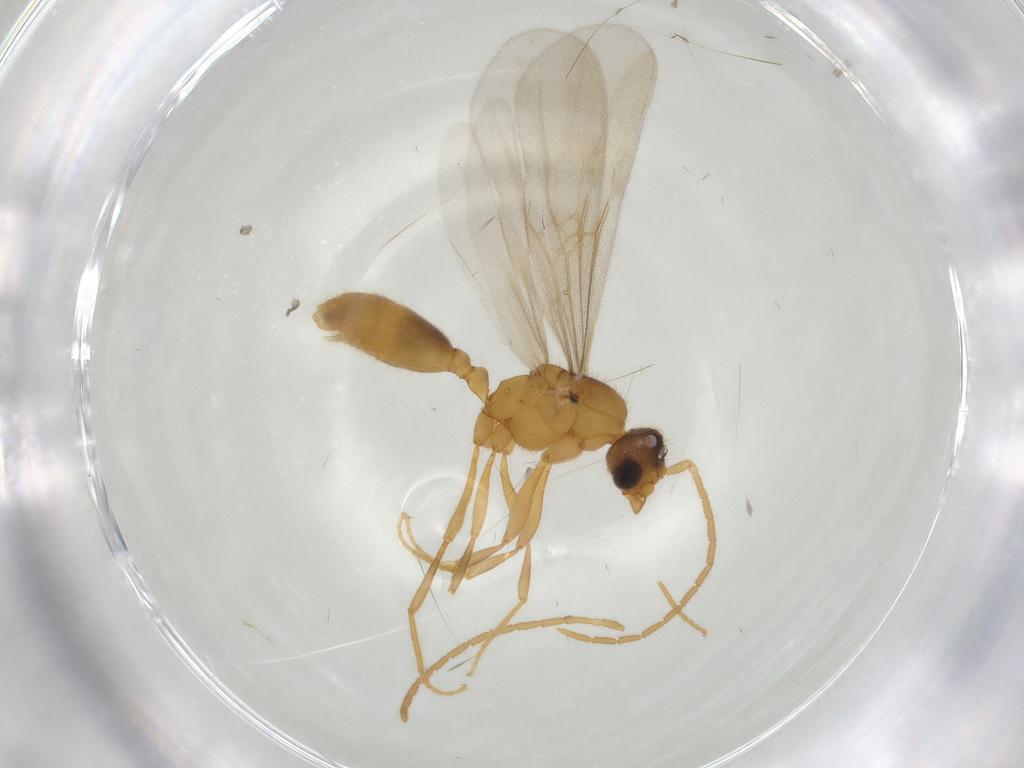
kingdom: Animalia
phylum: Arthropoda
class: Insecta
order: Hymenoptera
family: Formicidae
